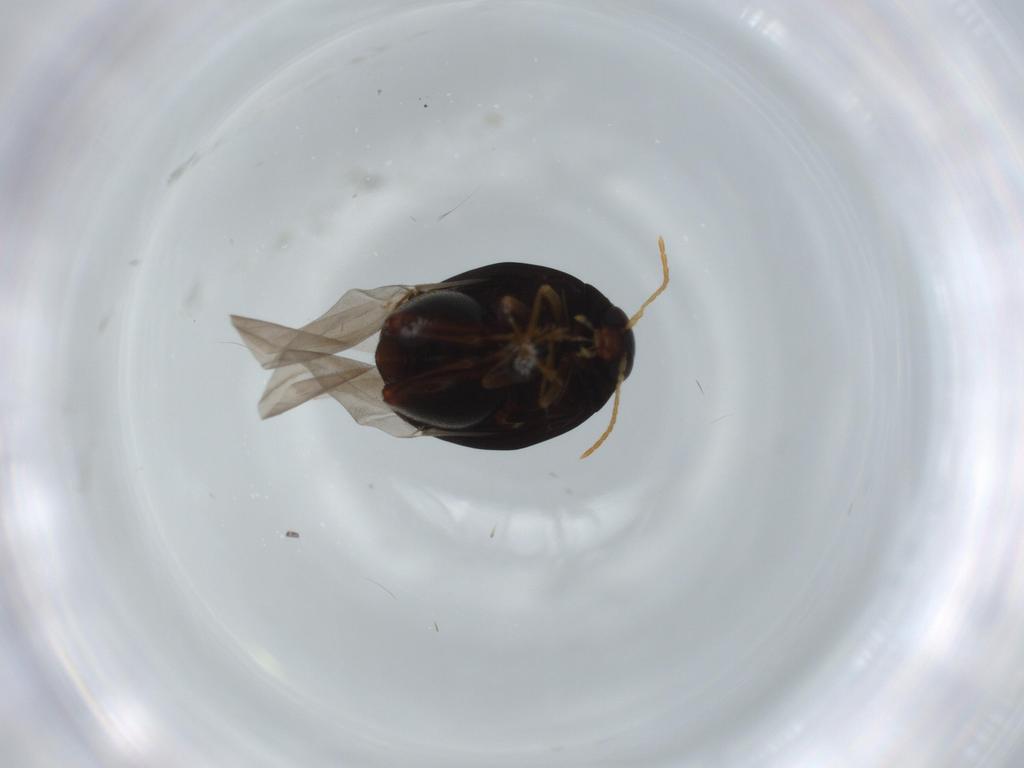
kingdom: Animalia
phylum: Arthropoda
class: Insecta
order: Coleoptera
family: Chrysomelidae
